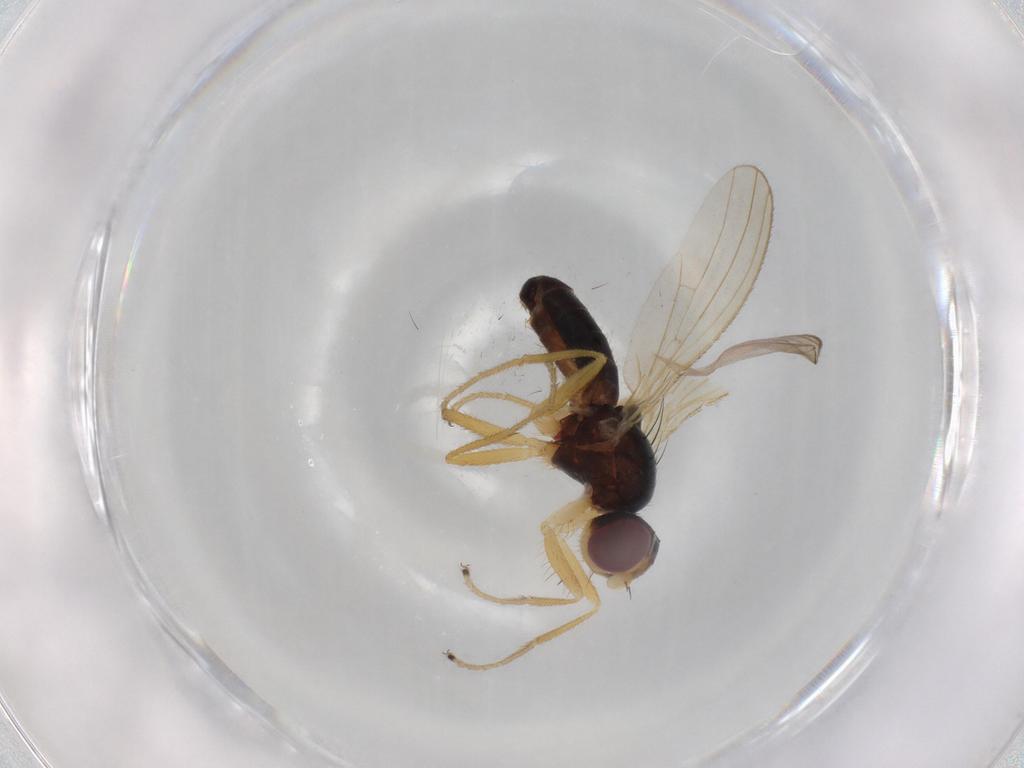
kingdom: Animalia
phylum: Arthropoda
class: Insecta
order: Diptera
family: Anthomyzidae
